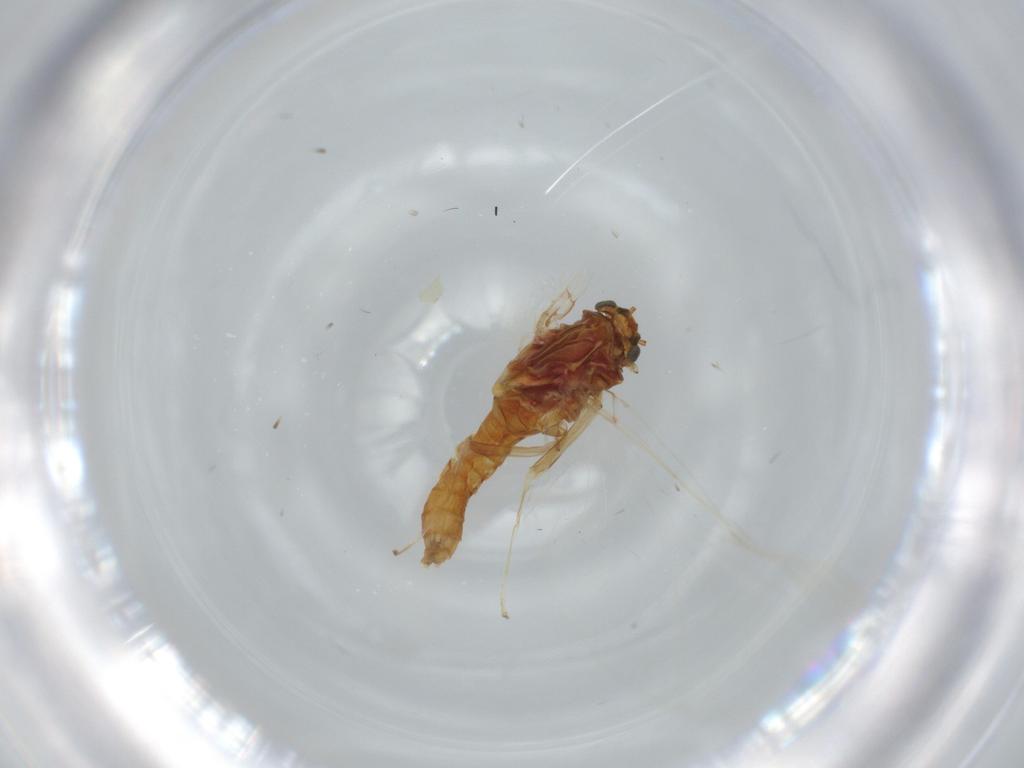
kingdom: Animalia
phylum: Arthropoda
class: Insecta
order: Ephemeroptera
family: Baetidae
